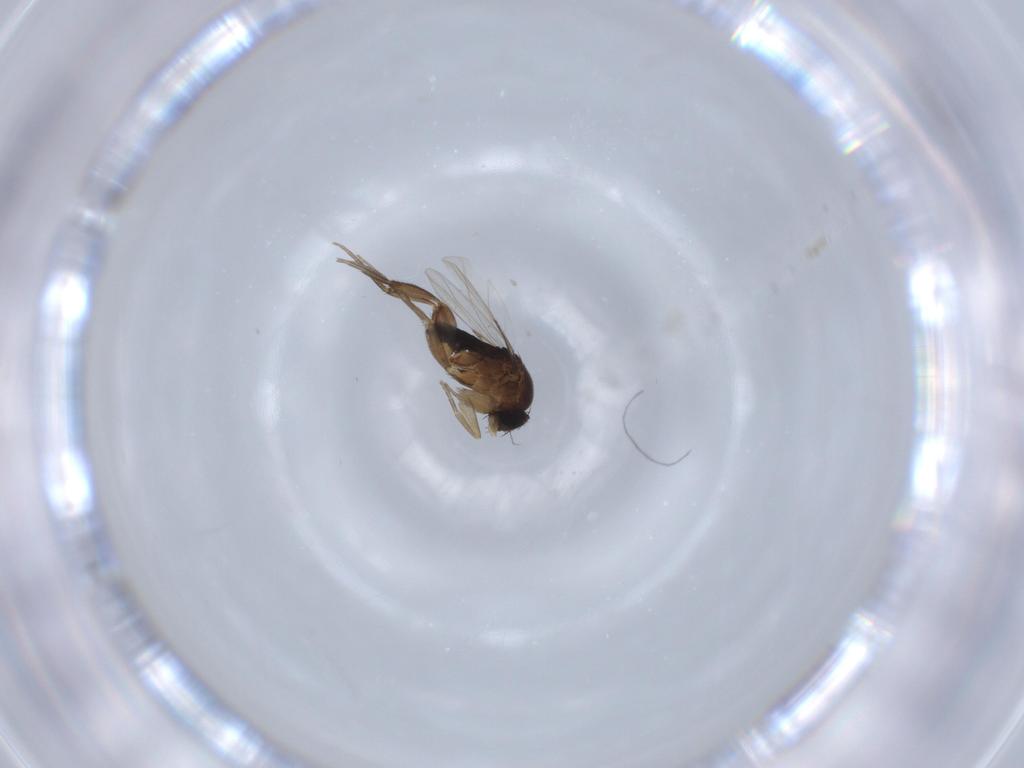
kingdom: Animalia
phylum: Arthropoda
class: Insecta
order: Diptera
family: Phoridae
